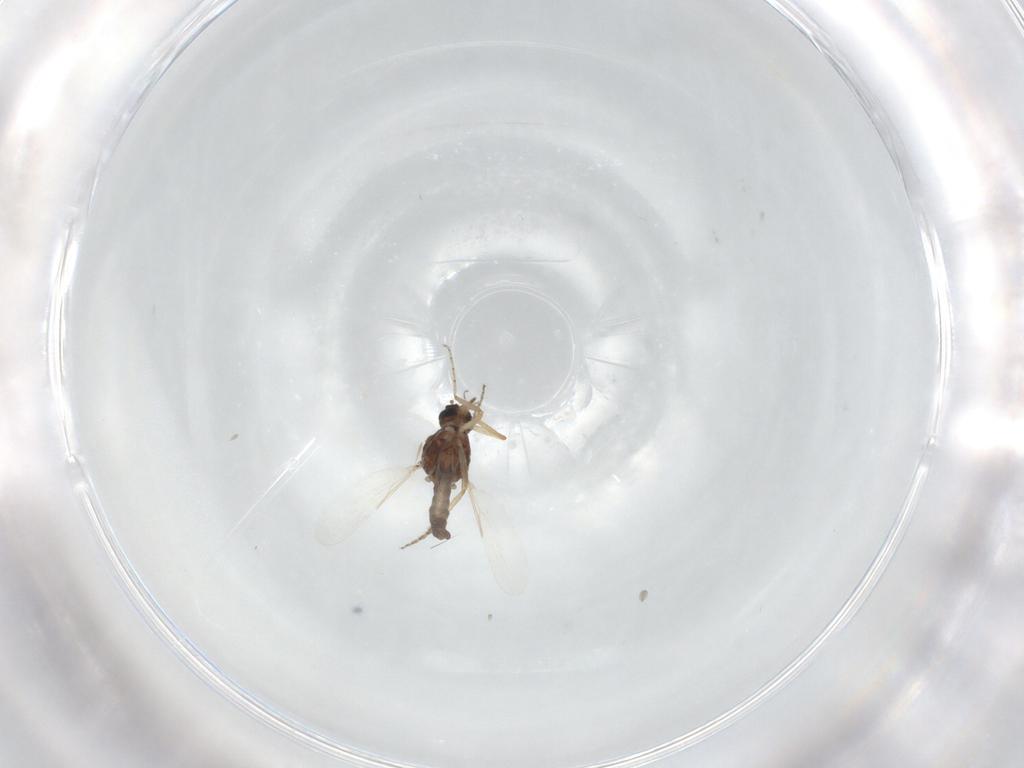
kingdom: Animalia
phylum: Arthropoda
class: Insecta
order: Diptera
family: Ceratopogonidae
